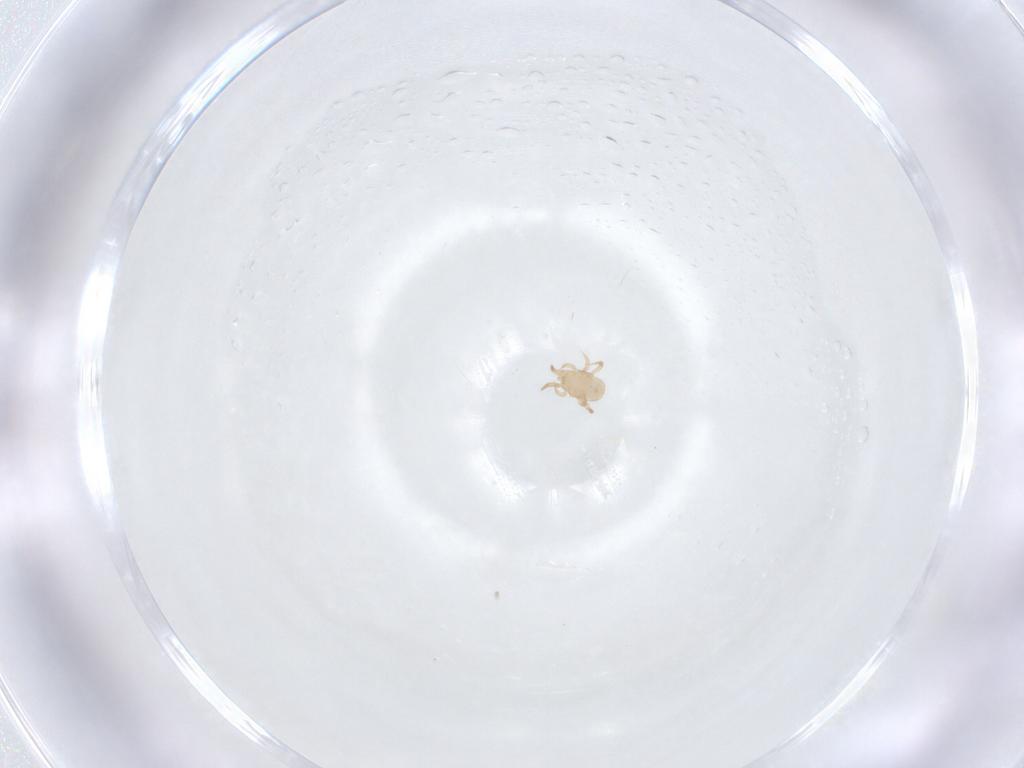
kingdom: Animalia
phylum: Arthropoda
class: Arachnida
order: Mesostigmata
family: Ameroseiidae
